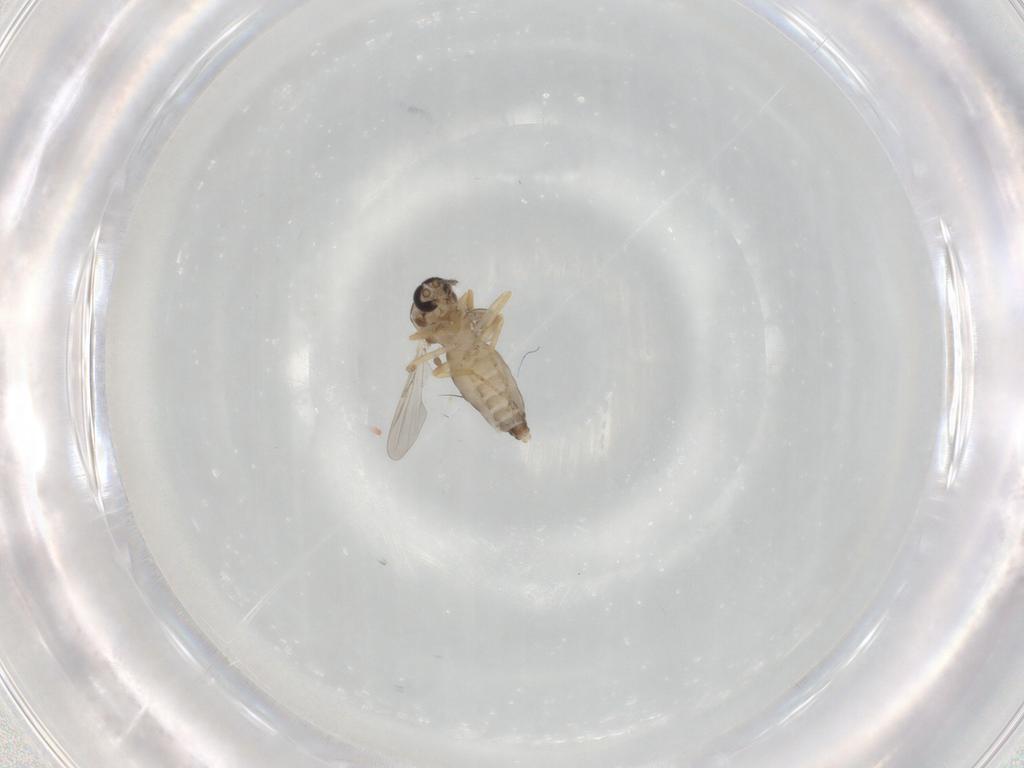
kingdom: Animalia
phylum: Arthropoda
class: Insecta
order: Diptera
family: Ceratopogonidae
